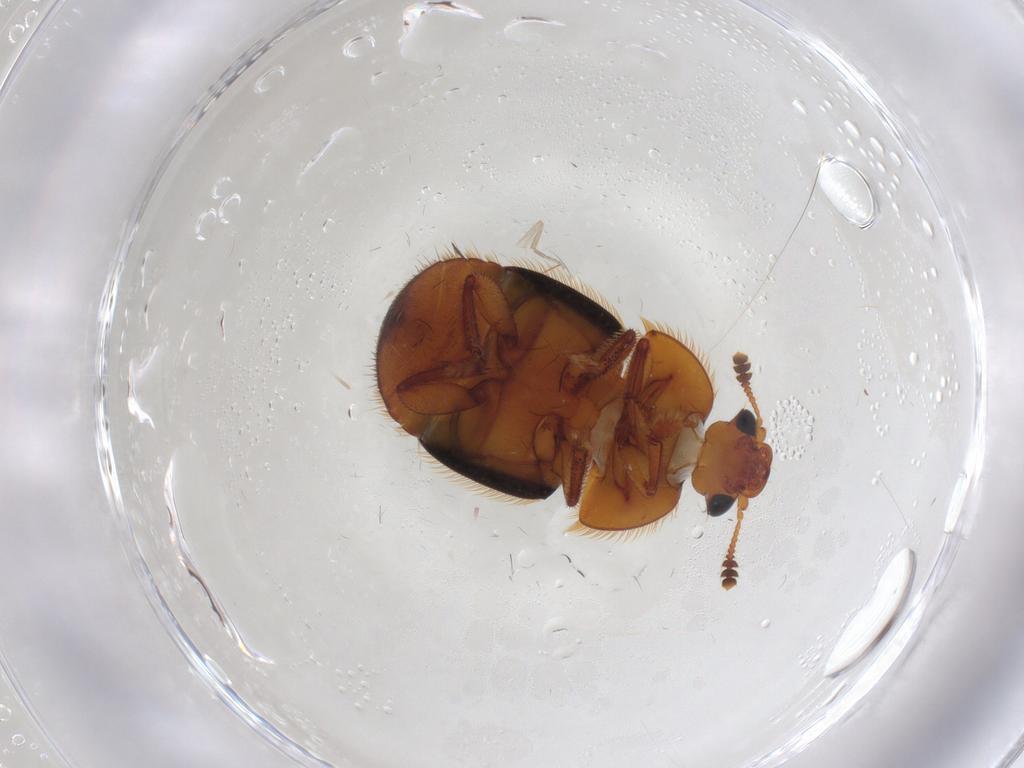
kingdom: Animalia
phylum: Arthropoda
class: Insecta
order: Coleoptera
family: Nitidulidae
